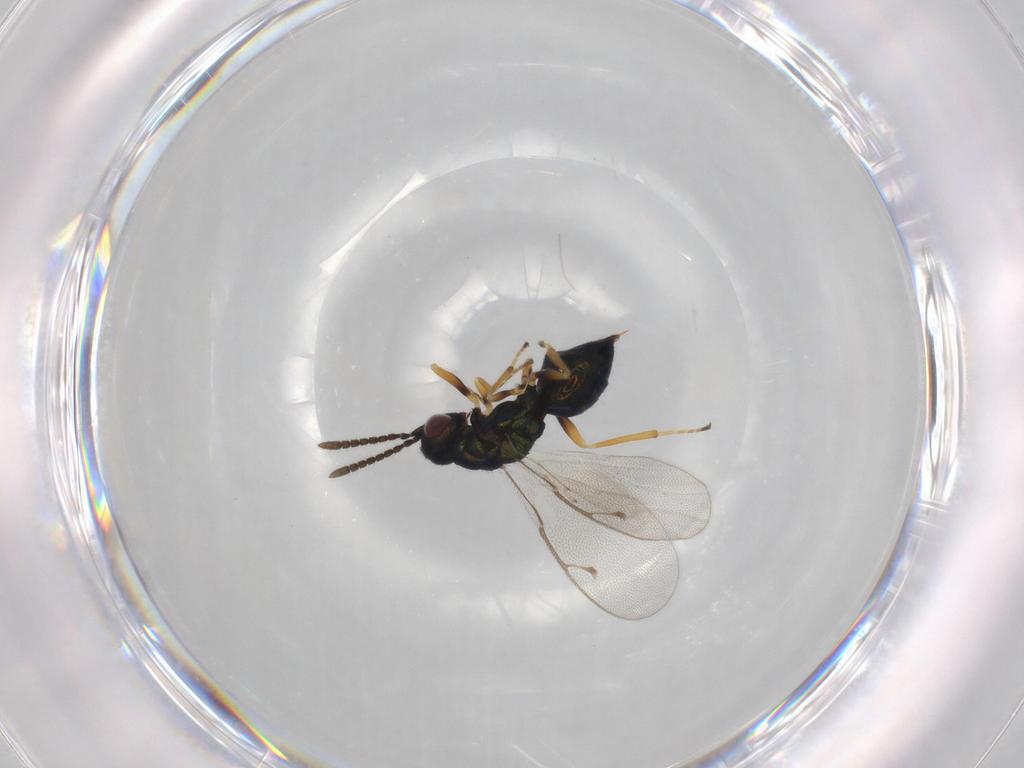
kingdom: Animalia
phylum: Arthropoda
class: Insecta
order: Hymenoptera
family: Pteromalidae
